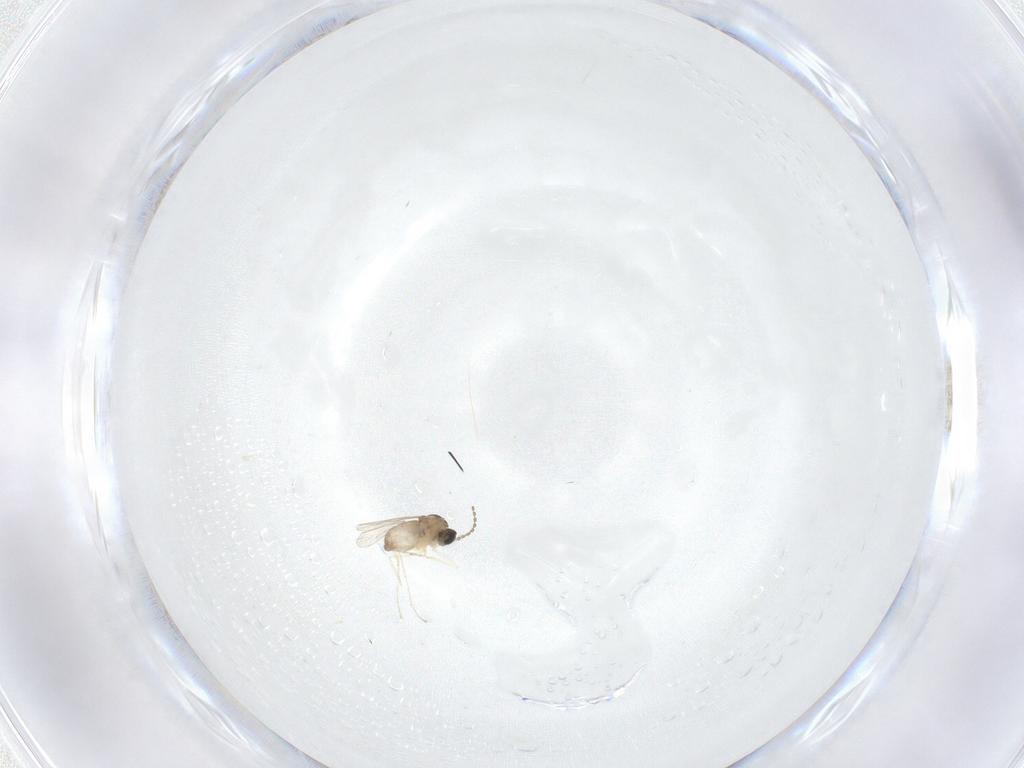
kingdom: Animalia
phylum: Arthropoda
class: Insecta
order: Diptera
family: Cecidomyiidae
